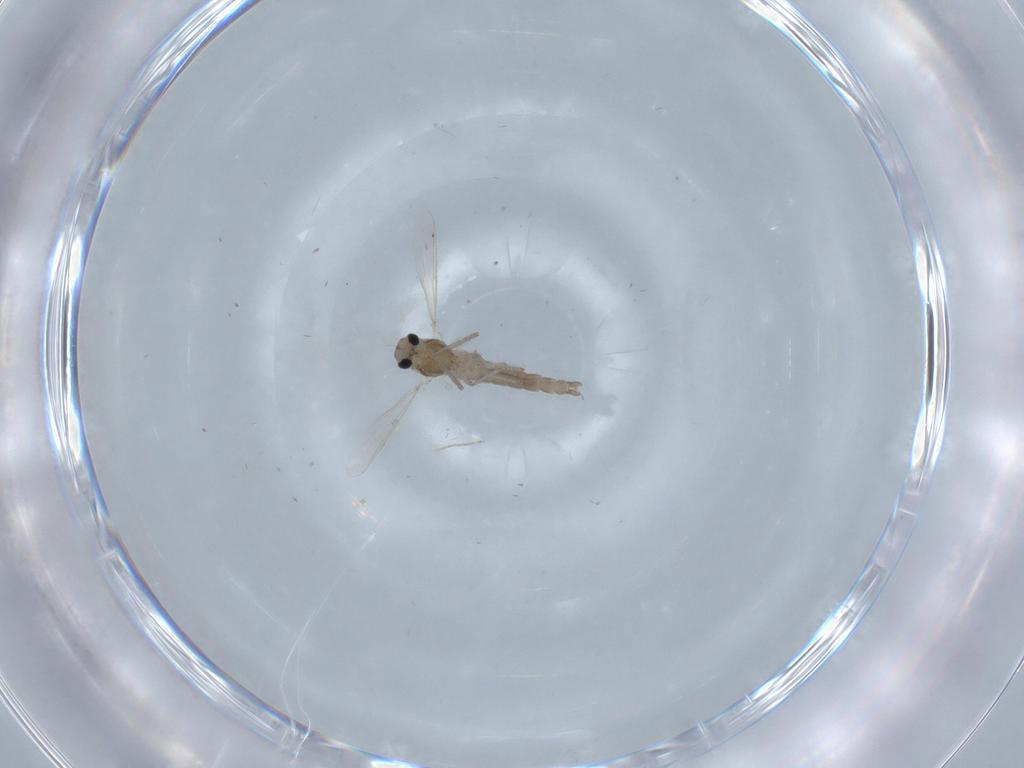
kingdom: Animalia
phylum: Arthropoda
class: Insecta
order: Diptera
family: Chironomidae
